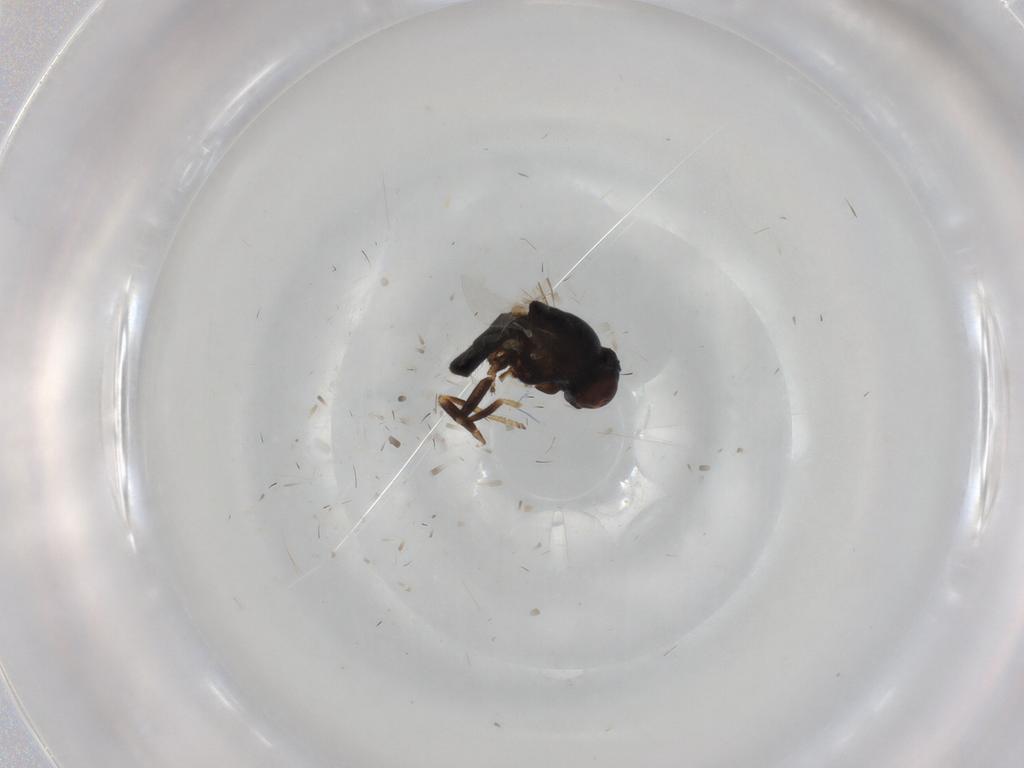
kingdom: Animalia
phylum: Arthropoda
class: Insecta
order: Diptera
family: Chloropidae
